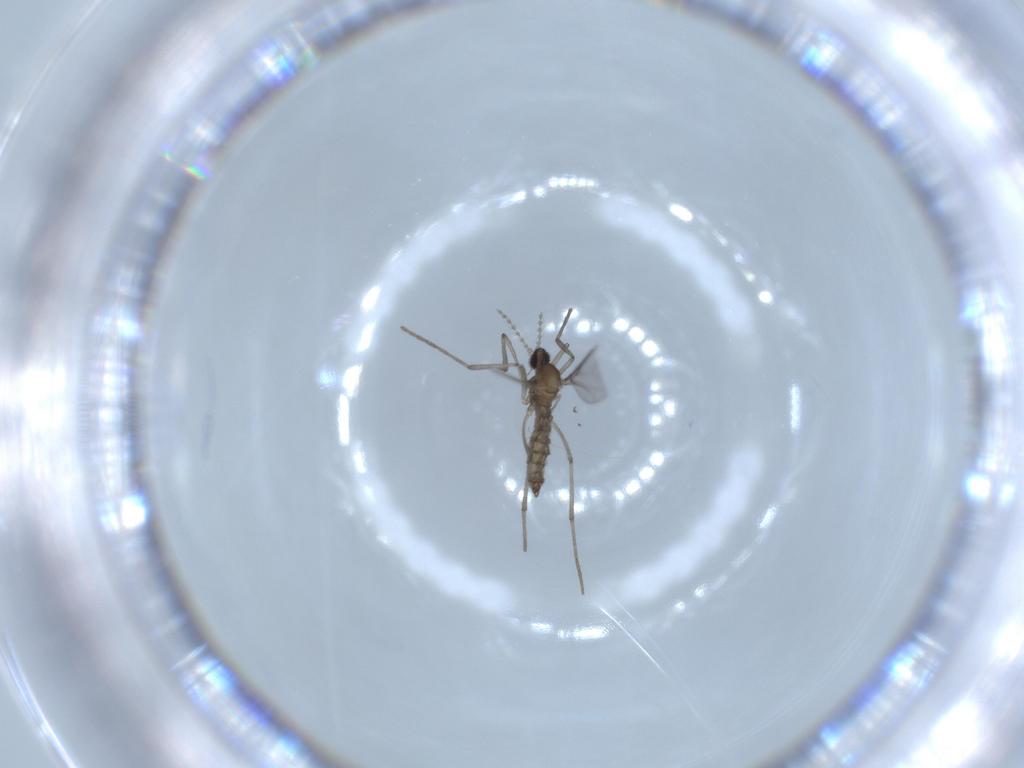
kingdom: Animalia
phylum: Arthropoda
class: Insecta
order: Diptera
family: Cecidomyiidae
